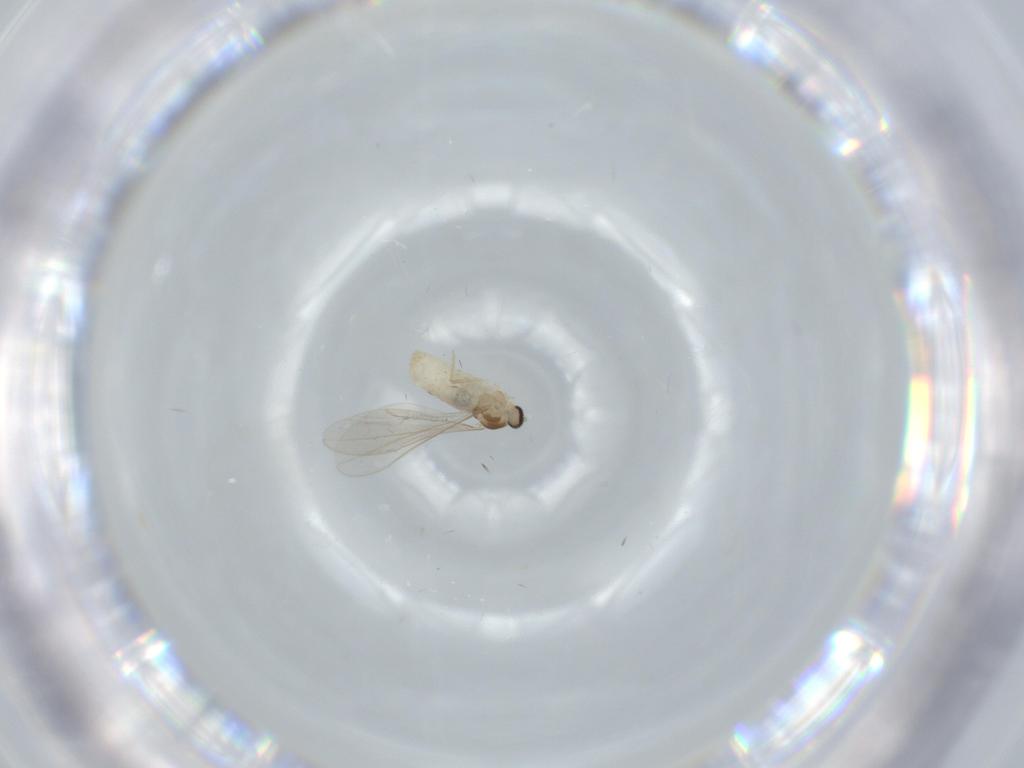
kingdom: Animalia
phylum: Arthropoda
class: Insecta
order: Diptera
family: Cecidomyiidae
